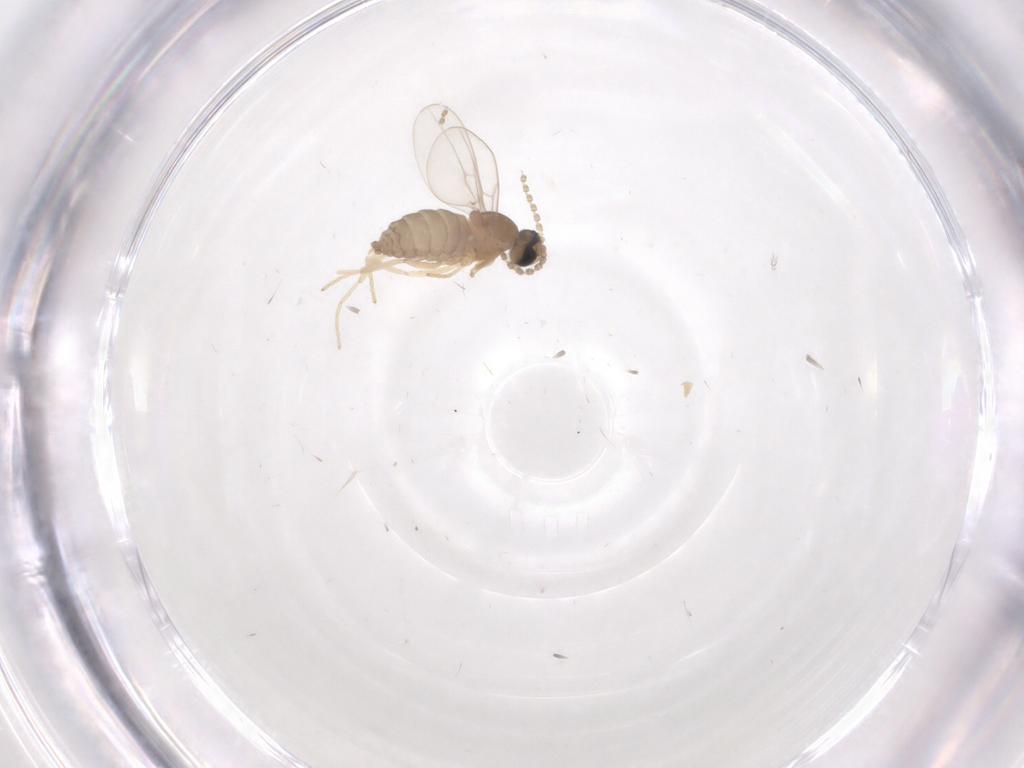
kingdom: Animalia
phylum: Arthropoda
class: Insecta
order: Diptera
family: Cecidomyiidae
